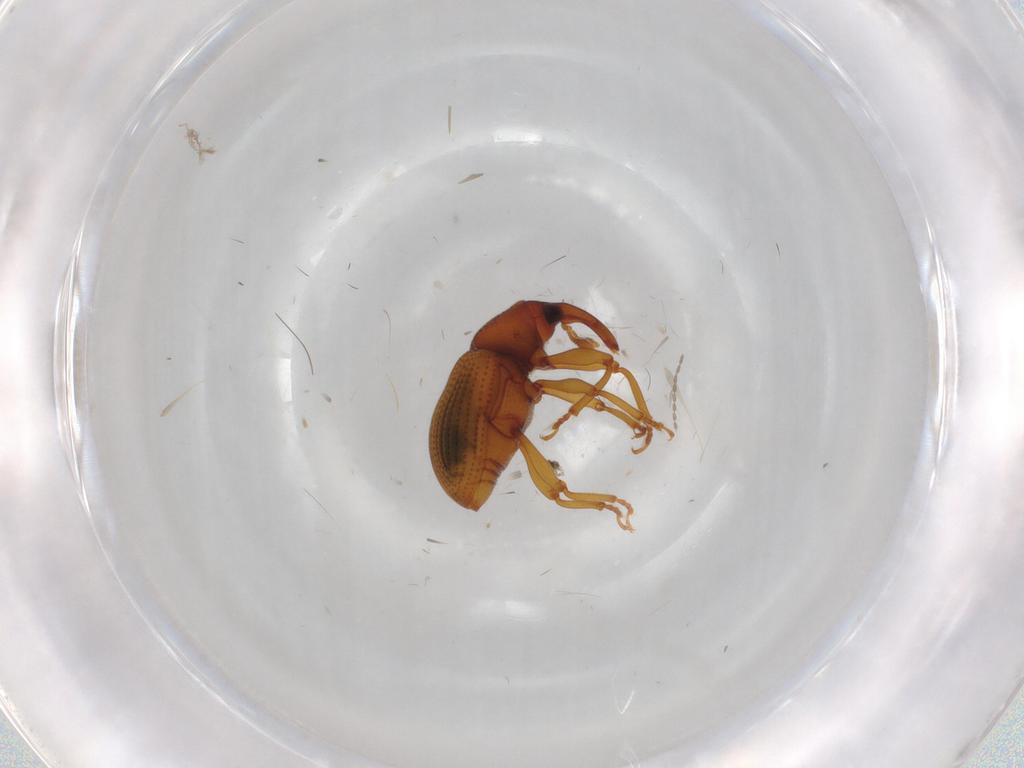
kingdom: Animalia
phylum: Arthropoda
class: Insecta
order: Coleoptera
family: Curculionidae
